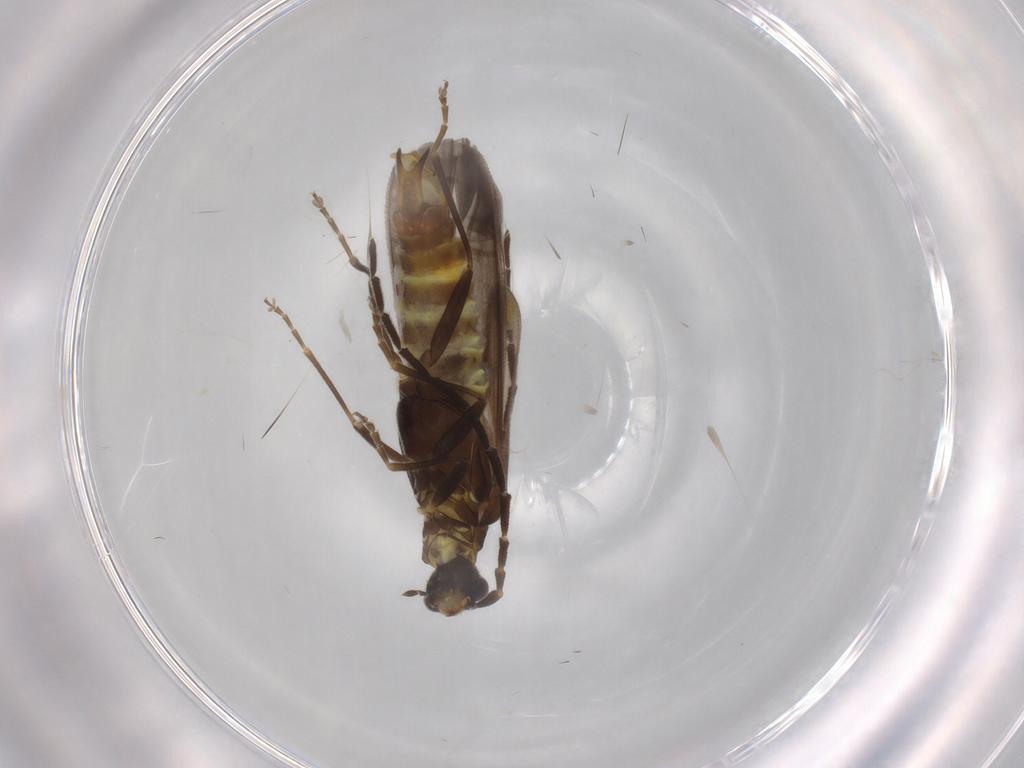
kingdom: Animalia
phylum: Arthropoda
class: Insecta
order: Coleoptera
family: Cantharidae
